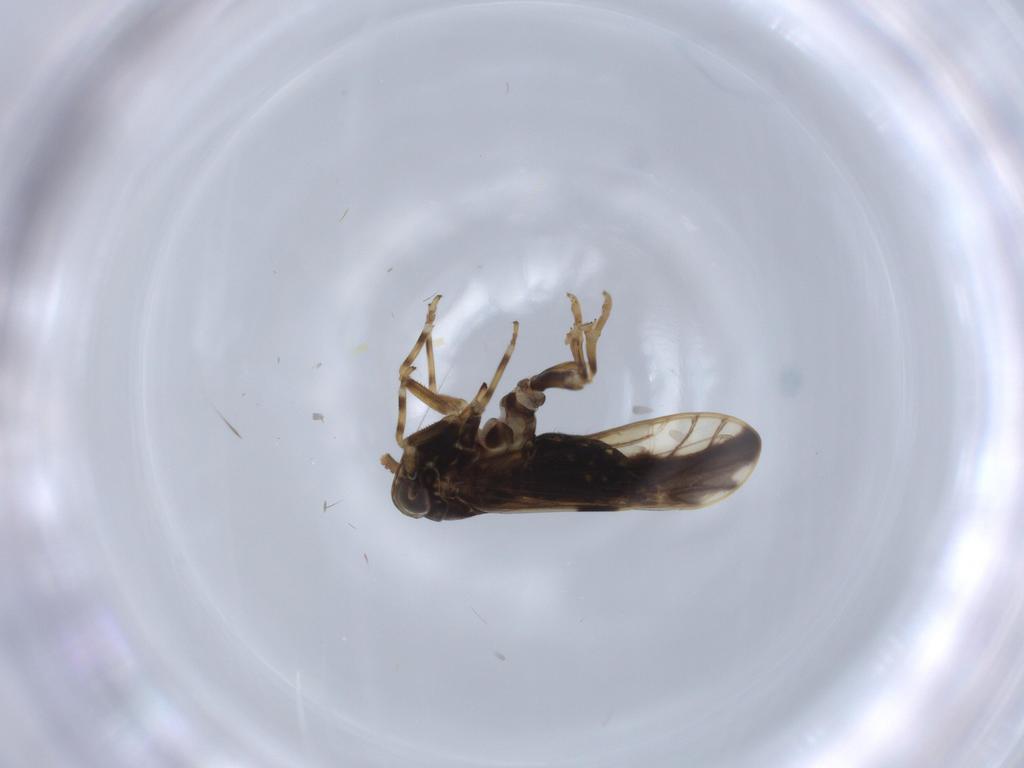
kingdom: Animalia
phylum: Arthropoda
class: Insecta
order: Hemiptera
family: Delphacidae
